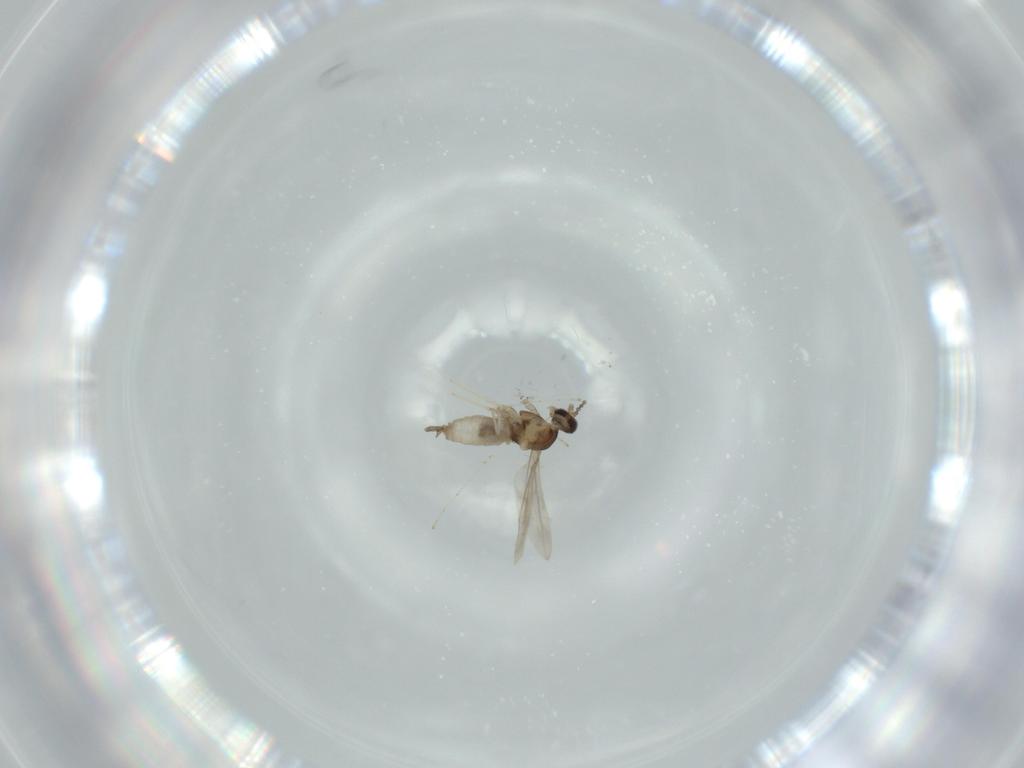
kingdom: Animalia
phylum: Arthropoda
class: Insecta
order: Diptera
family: Cecidomyiidae
